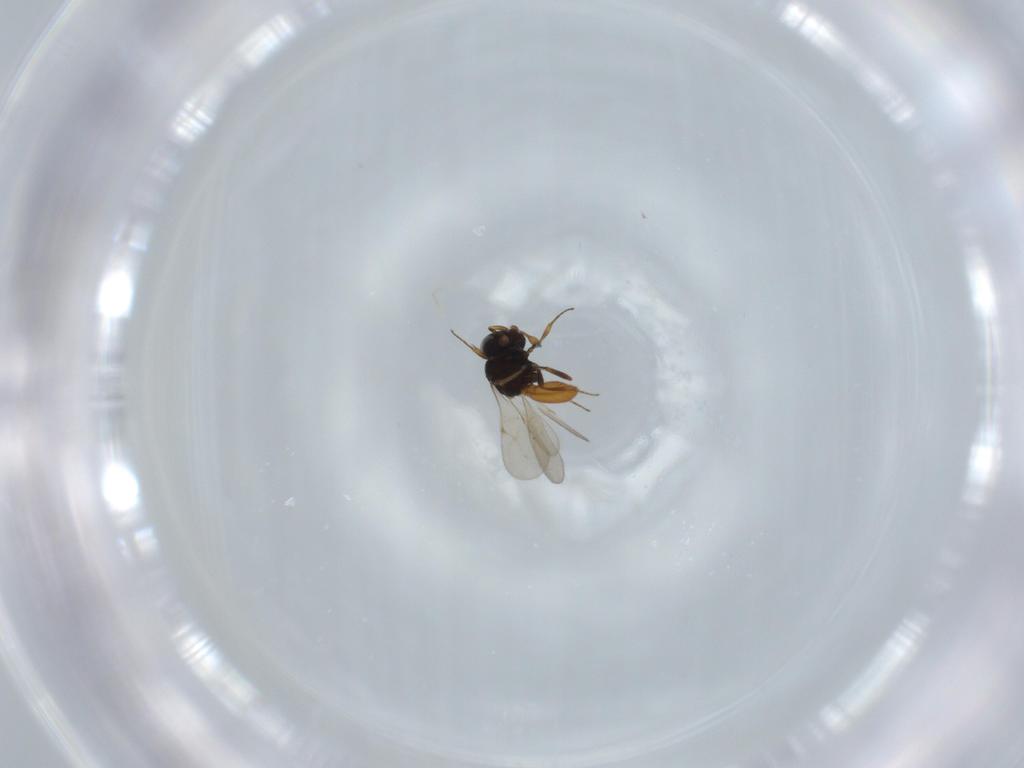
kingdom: Animalia
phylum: Arthropoda
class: Insecta
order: Hymenoptera
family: Scelionidae
